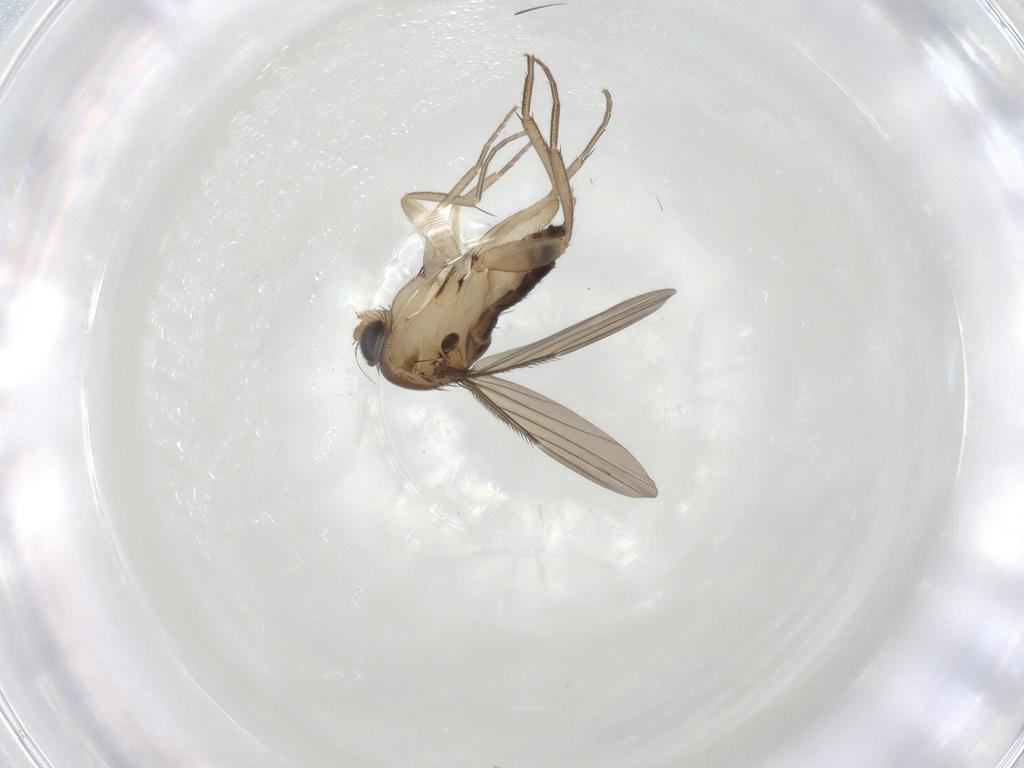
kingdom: Animalia
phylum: Arthropoda
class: Insecta
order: Diptera
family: Phoridae
